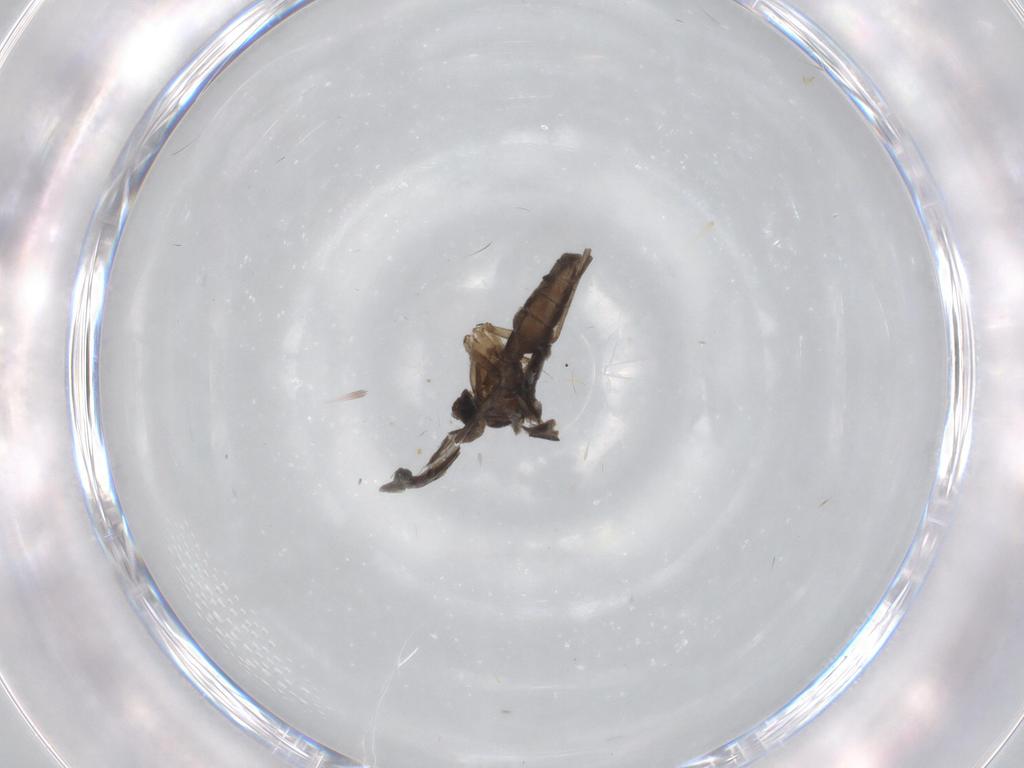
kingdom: Animalia
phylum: Arthropoda
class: Insecta
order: Diptera
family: Sciaridae
